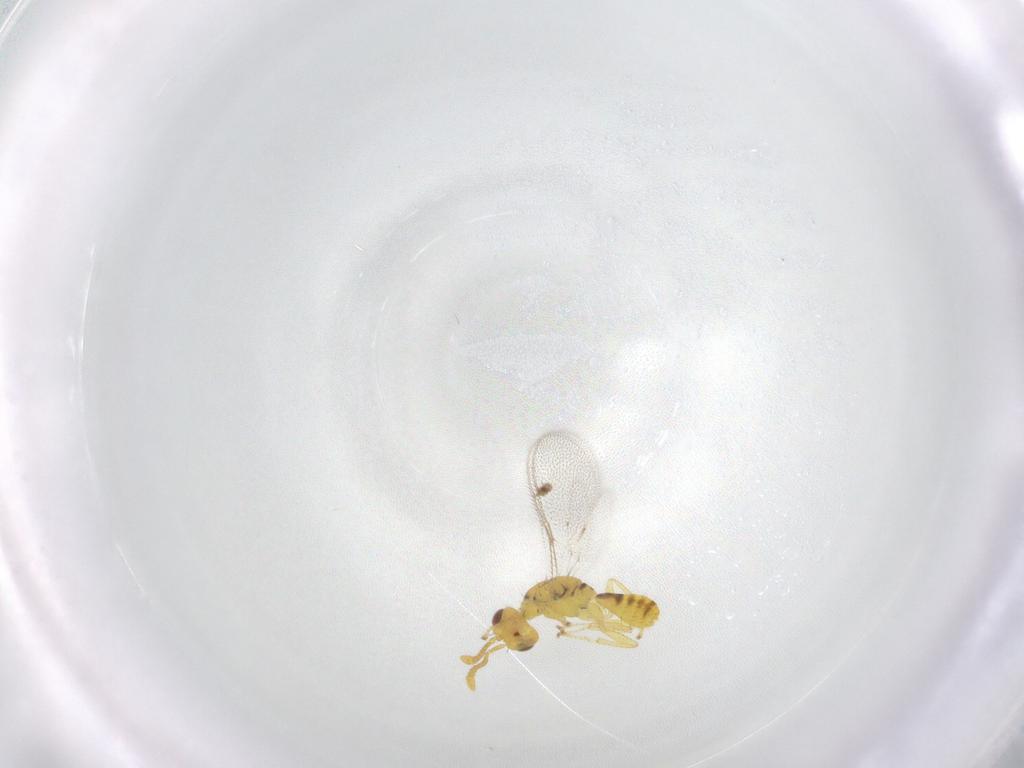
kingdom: Animalia
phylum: Arthropoda
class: Insecta
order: Hymenoptera
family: Megastigmidae
